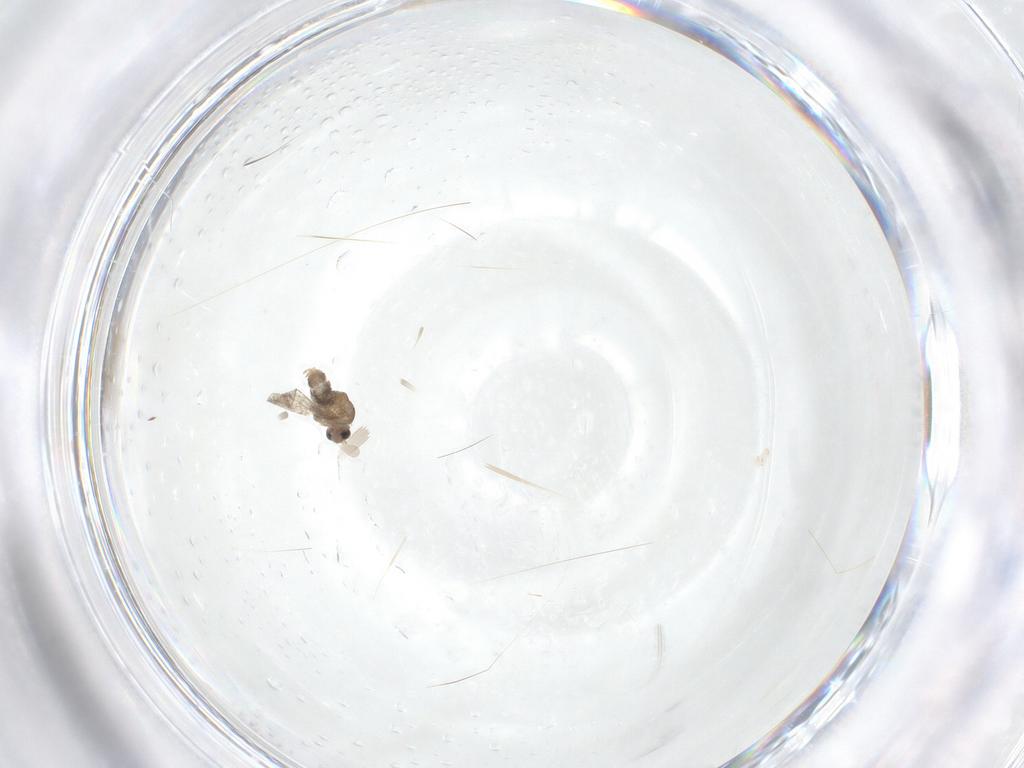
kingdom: Animalia
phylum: Arthropoda
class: Insecta
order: Diptera
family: Cecidomyiidae
